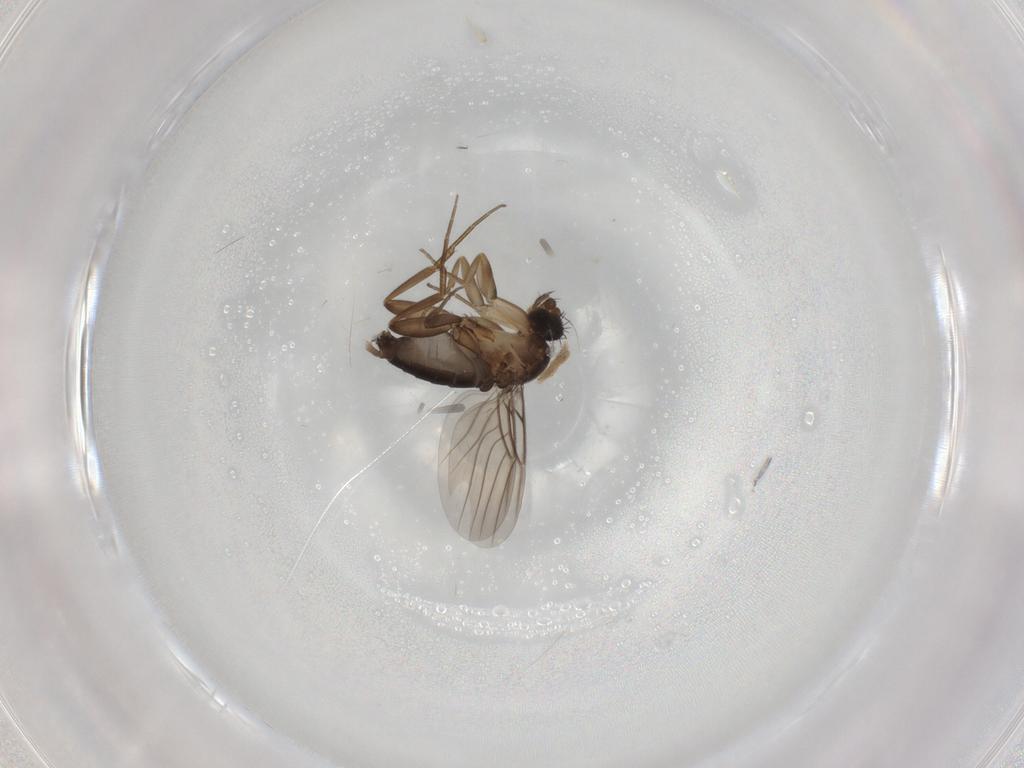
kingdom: Animalia
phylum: Arthropoda
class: Insecta
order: Diptera
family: Phoridae
